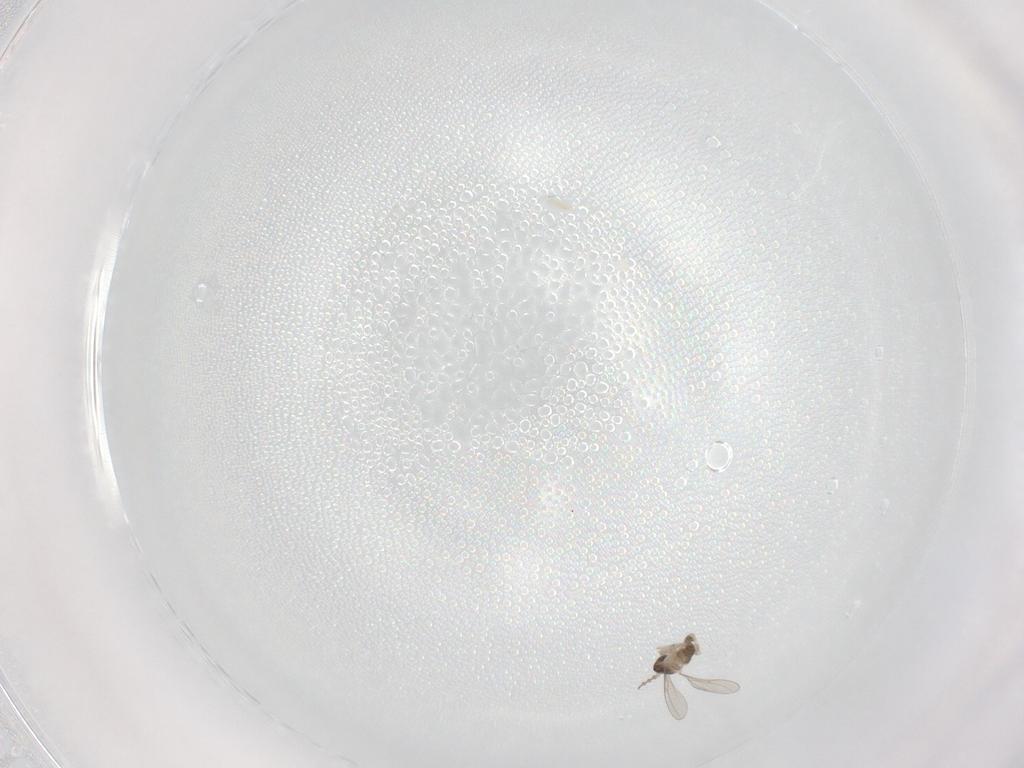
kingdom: Animalia
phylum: Arthropoda
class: Insecta
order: Diptera
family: Cecidomyiidae
